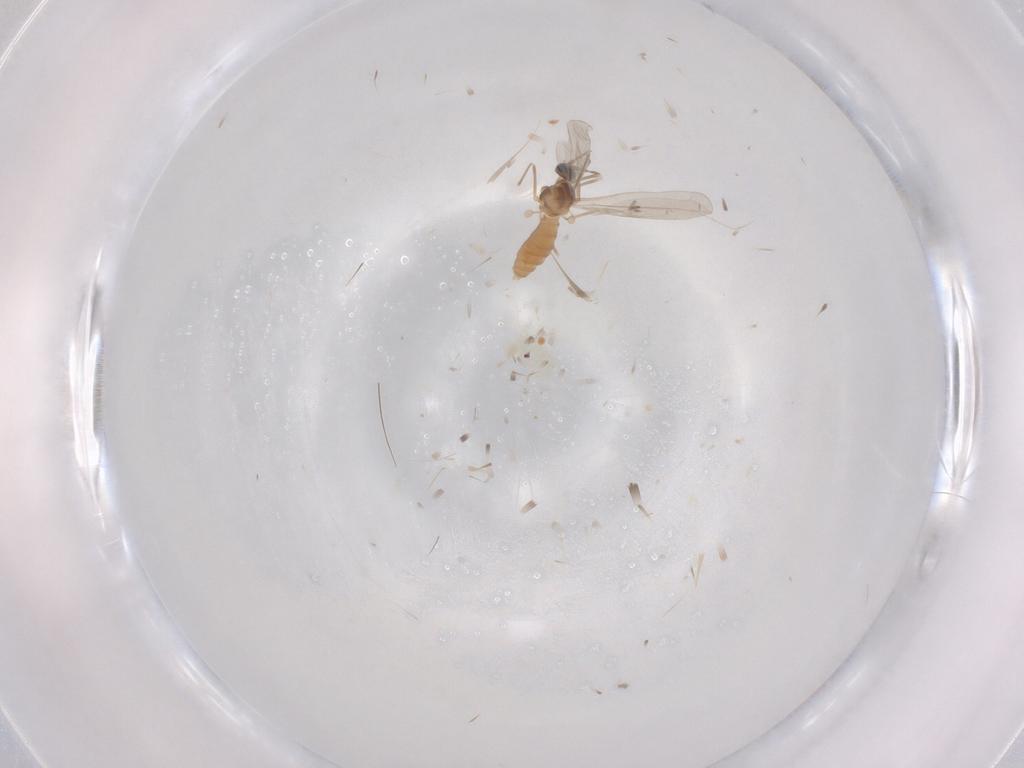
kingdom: Animalia
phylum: Arthropoda
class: Insecta
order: Diptera
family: Cecidomyiidae
